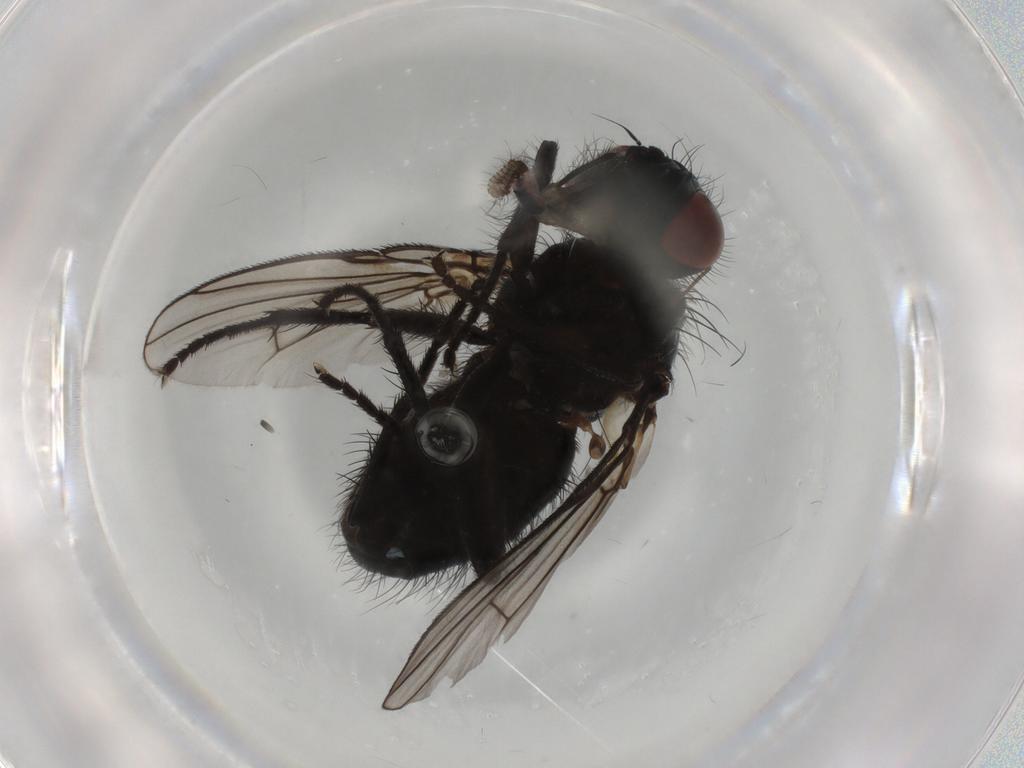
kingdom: Animalia
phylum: Arthropoda
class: Insecta
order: Diptera
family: Muscidae
